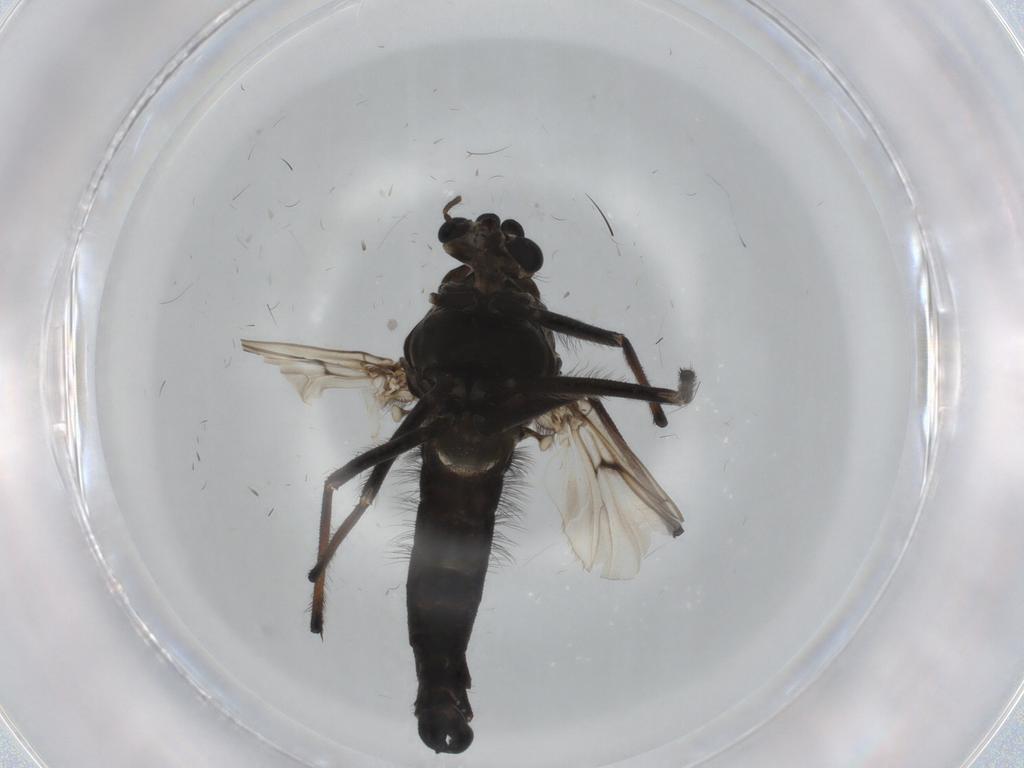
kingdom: Animalia
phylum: Arthropoda
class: Insecta
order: Diptera
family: Chironomidae
